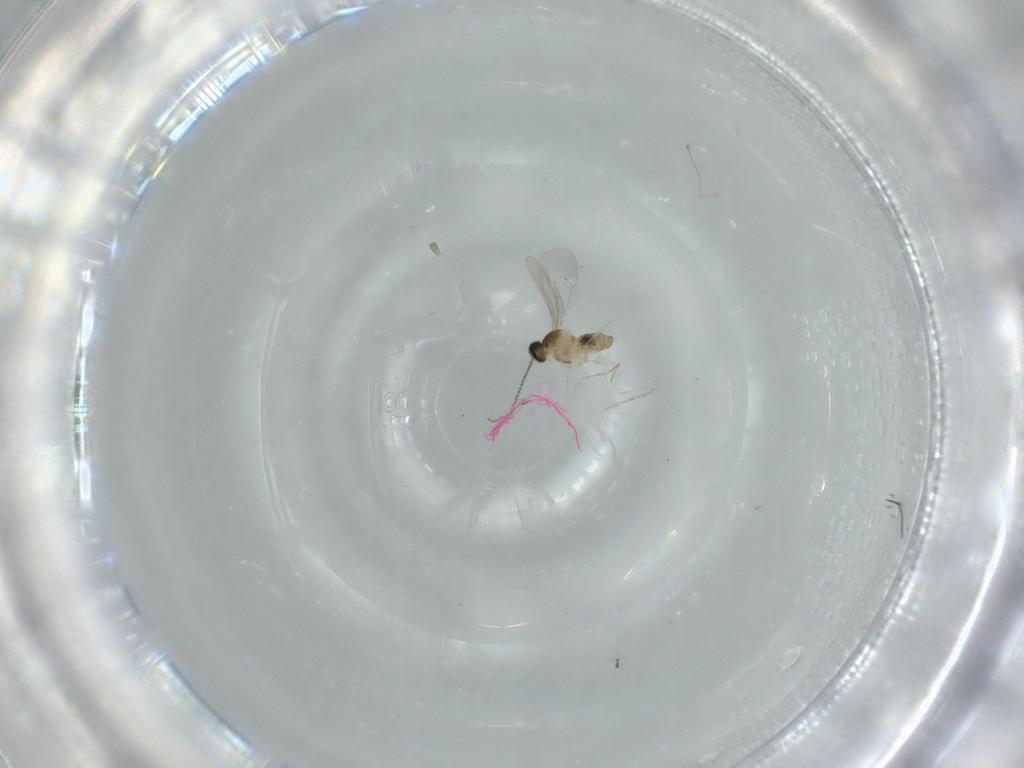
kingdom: Animalia
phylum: Arthropoda
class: Insecta
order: Diptera
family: Cecidomyiidae
